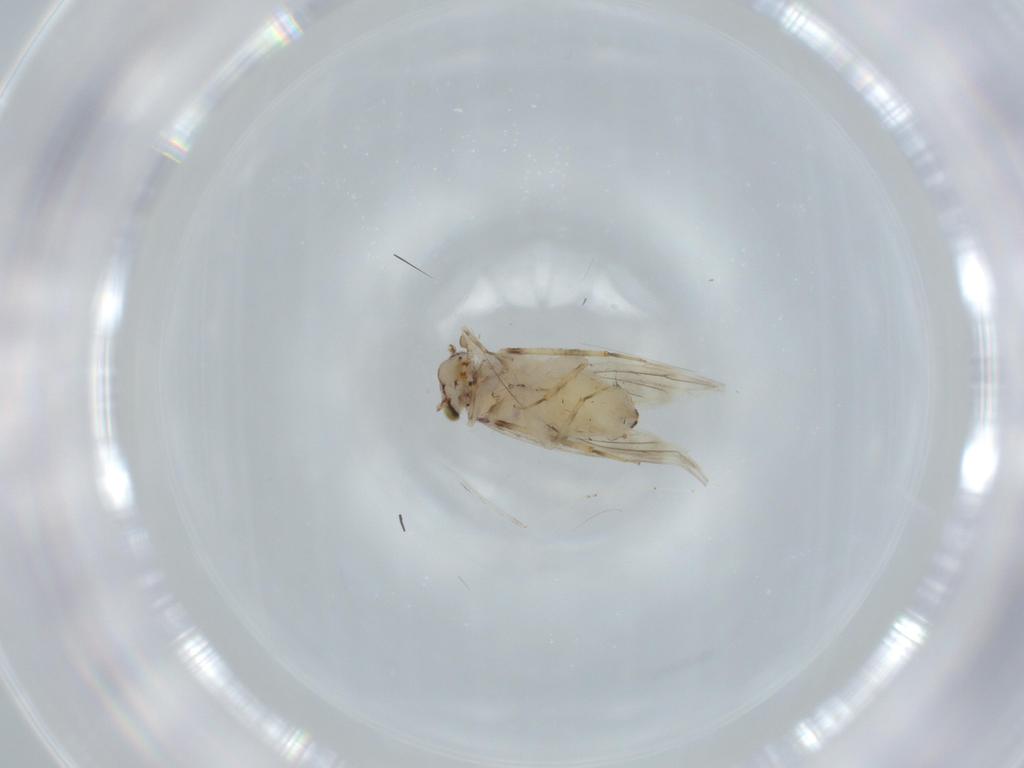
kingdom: Animalia
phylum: Arthropoda
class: Insecta
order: Psocodea
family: Lepidopsocidae
